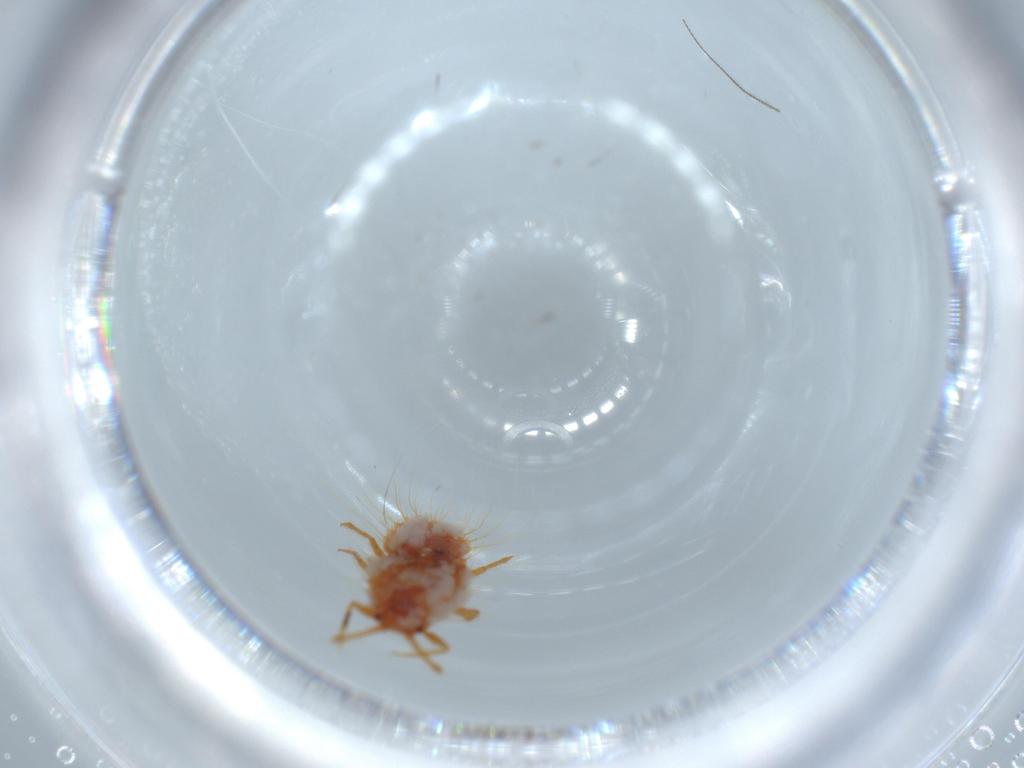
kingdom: Animalia
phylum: Arthropoda
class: Insecta
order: Hemiptera
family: Coccoidea_incertae_sedis
